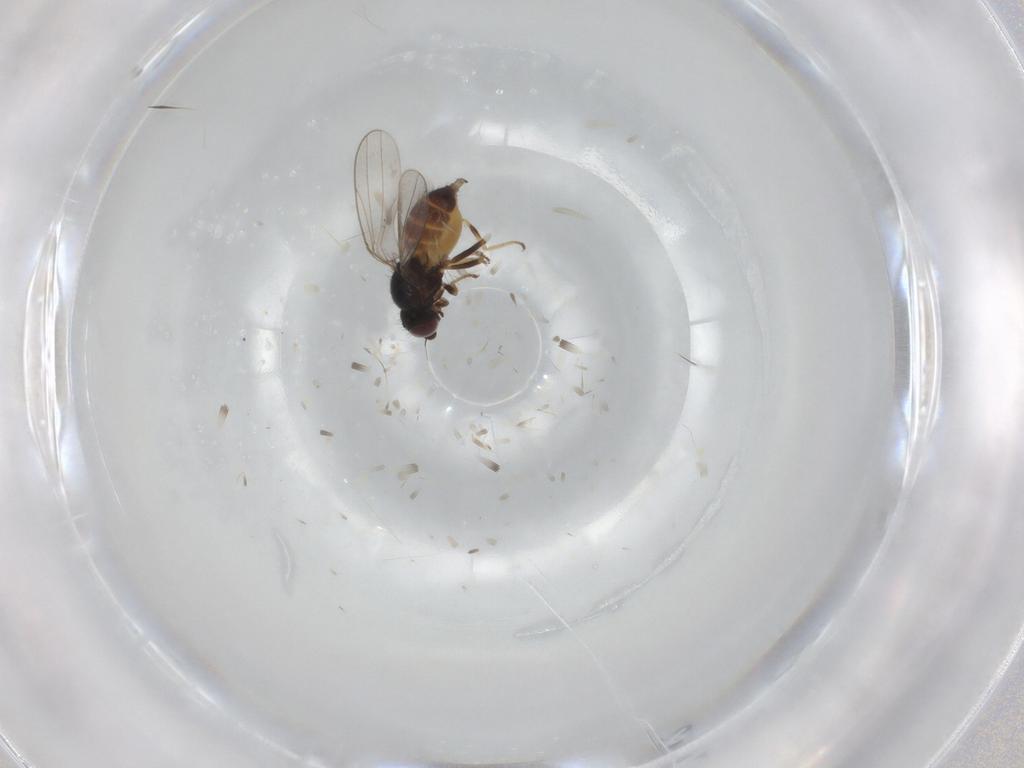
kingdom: Animalia
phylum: Arthropoda
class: Insecta
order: Diptera
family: Chloropidae
